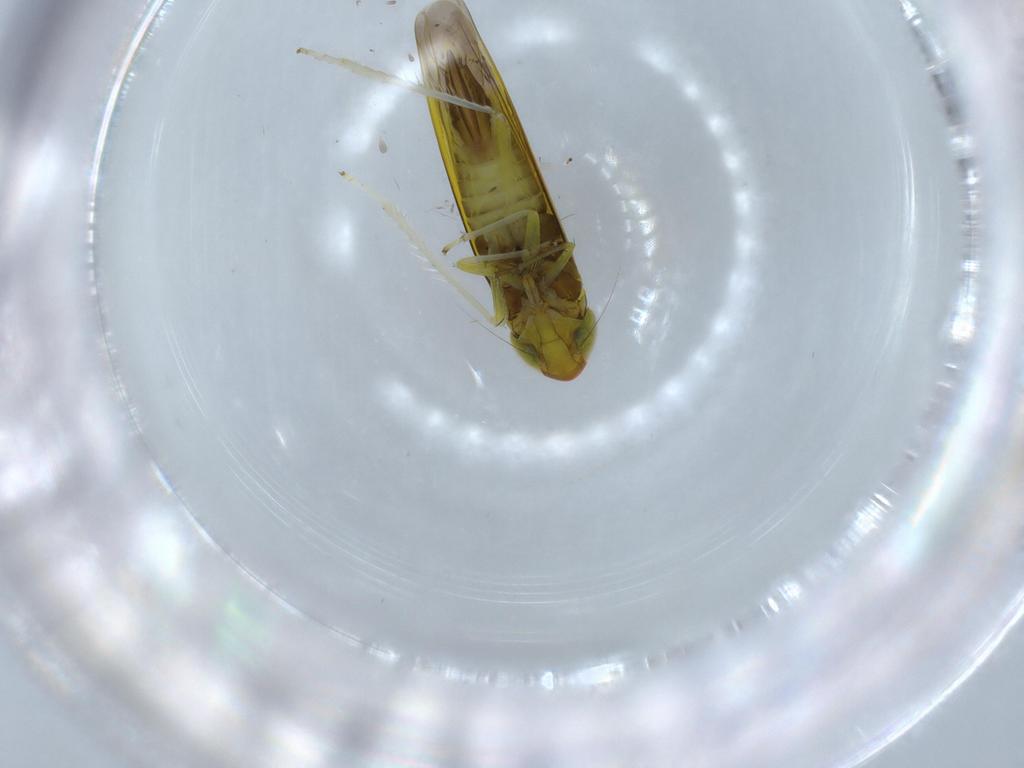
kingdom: Animalia
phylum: Arthropoda
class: Insecta
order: Hemiptera
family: Cicadellidae
